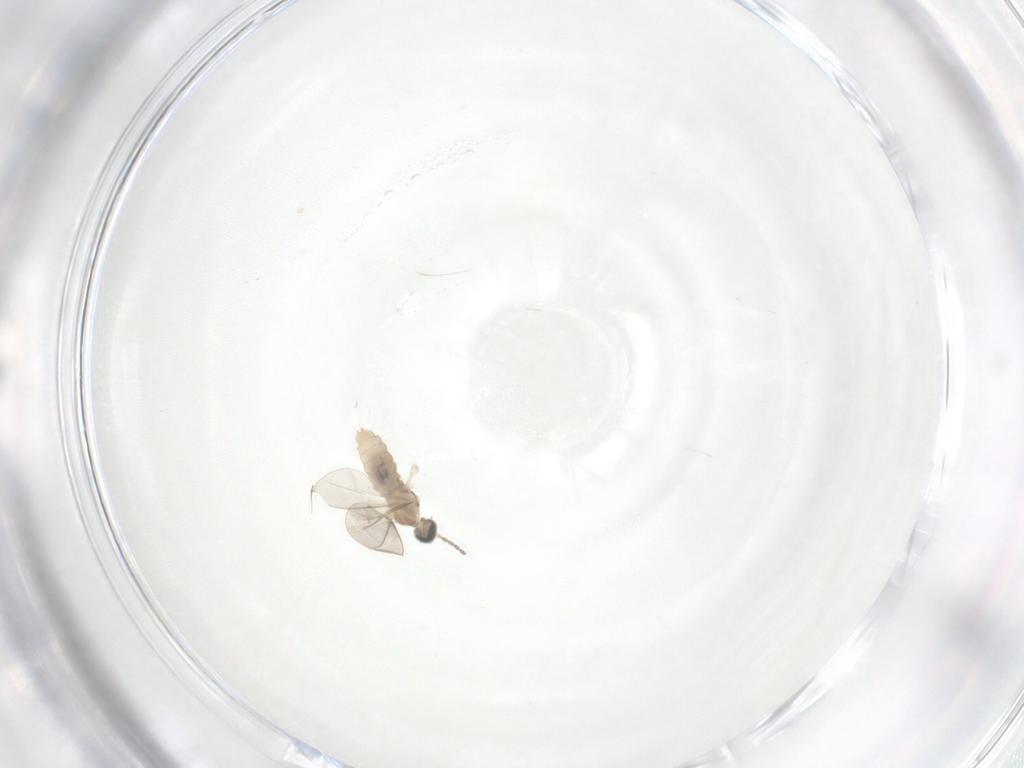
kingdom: Animalia
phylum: Arthropoda
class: Insecta
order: Diptera
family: Cecidomyiidae
